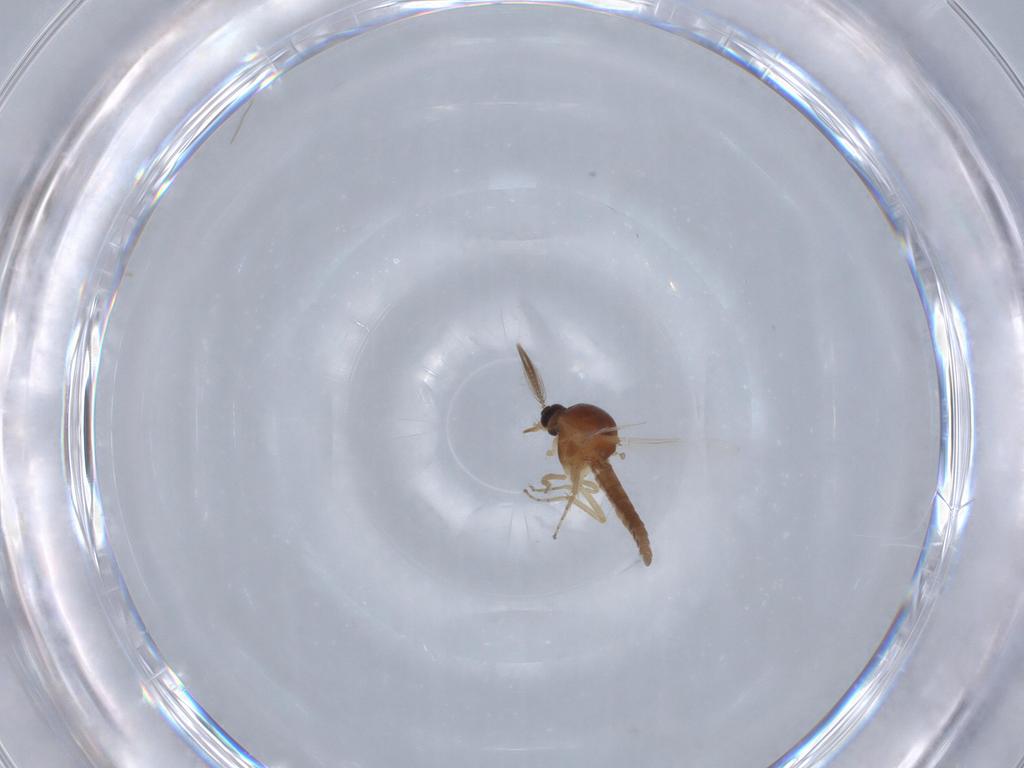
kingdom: Animalia
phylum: Arthropoda
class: Insecta
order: Diptera
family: Ceratopogonidae
